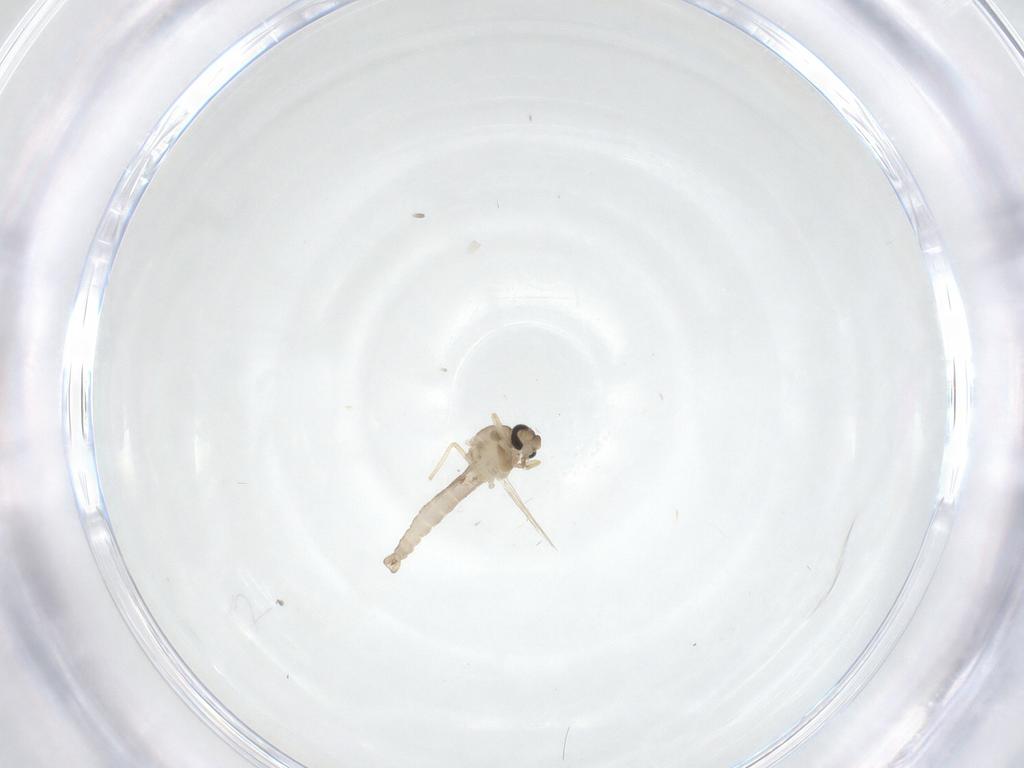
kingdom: Animalia
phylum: Arthropoda
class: Insecta
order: Diptera
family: Ceratopogonidae
